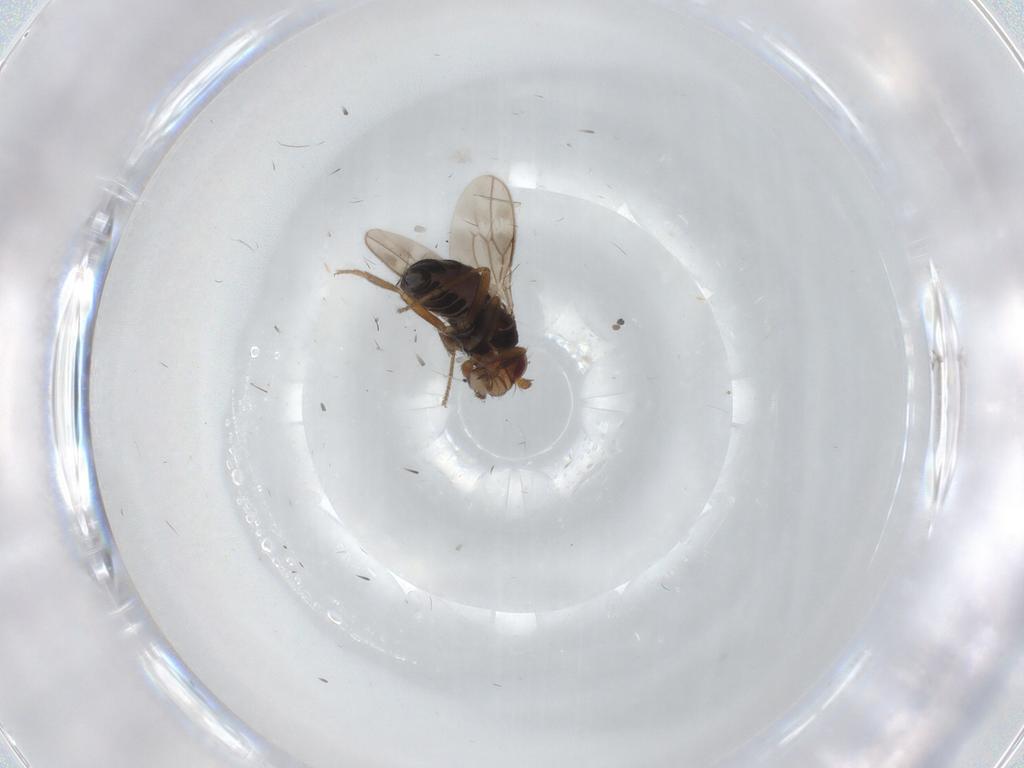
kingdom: Animalia
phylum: Arthropoda
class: Insecta
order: Diptera
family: Sphaeroceridae
